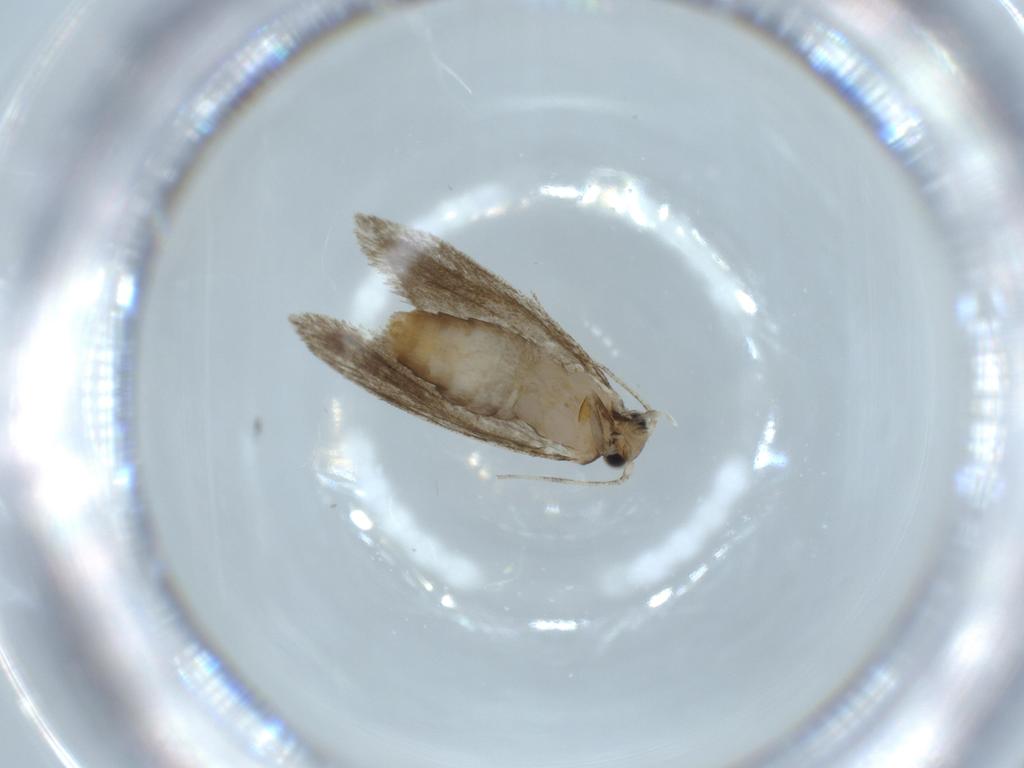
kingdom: Animalia
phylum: Arthropoda
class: Insecta
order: Lepidoptera
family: Tineidae
